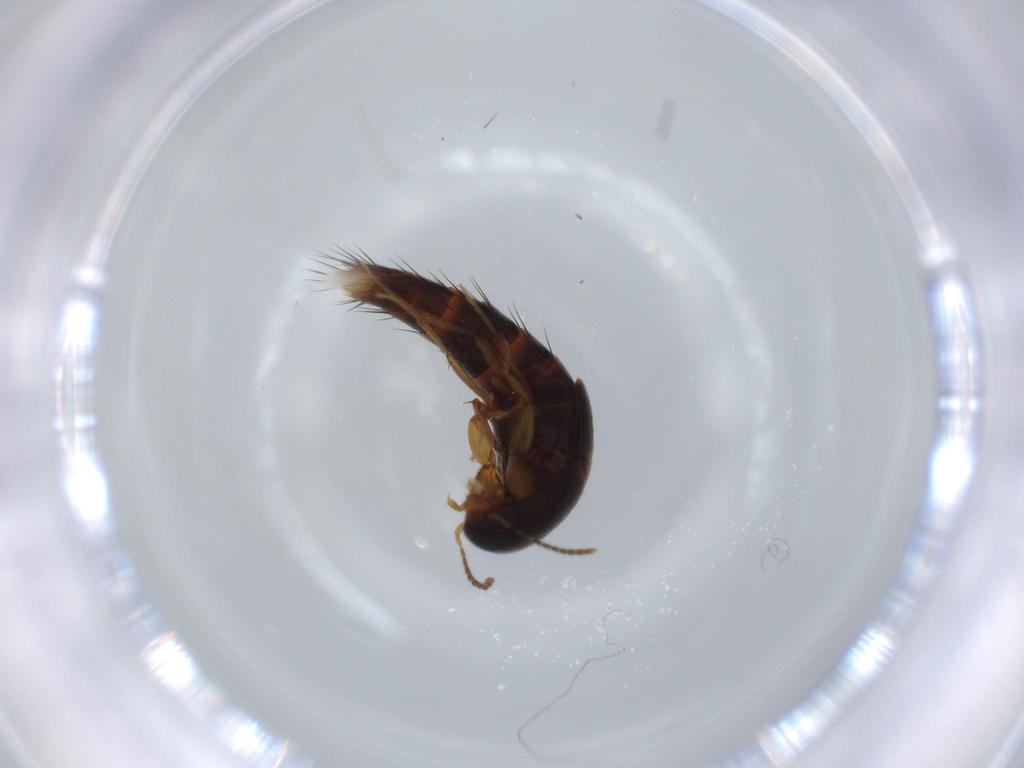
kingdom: Animalia
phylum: Arthropoda
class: Insecta
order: Coleoptera
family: Staphylinidae
